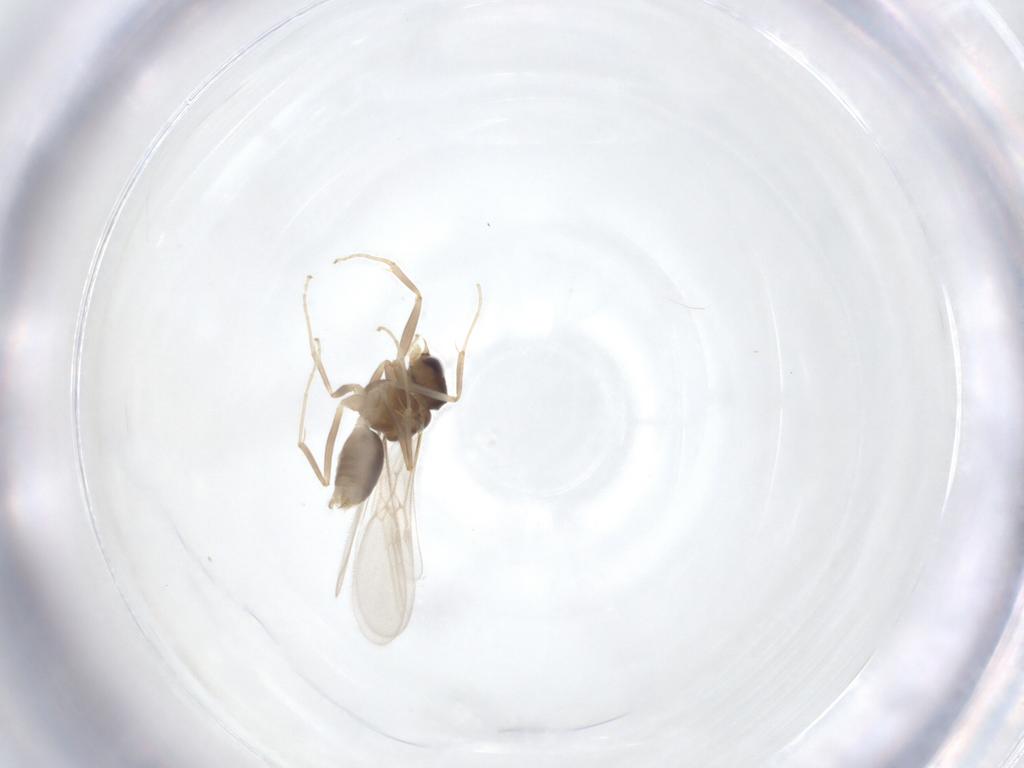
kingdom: Animalia
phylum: Arthropoda
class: Insecta
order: Hymenoptera
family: Formicidae
